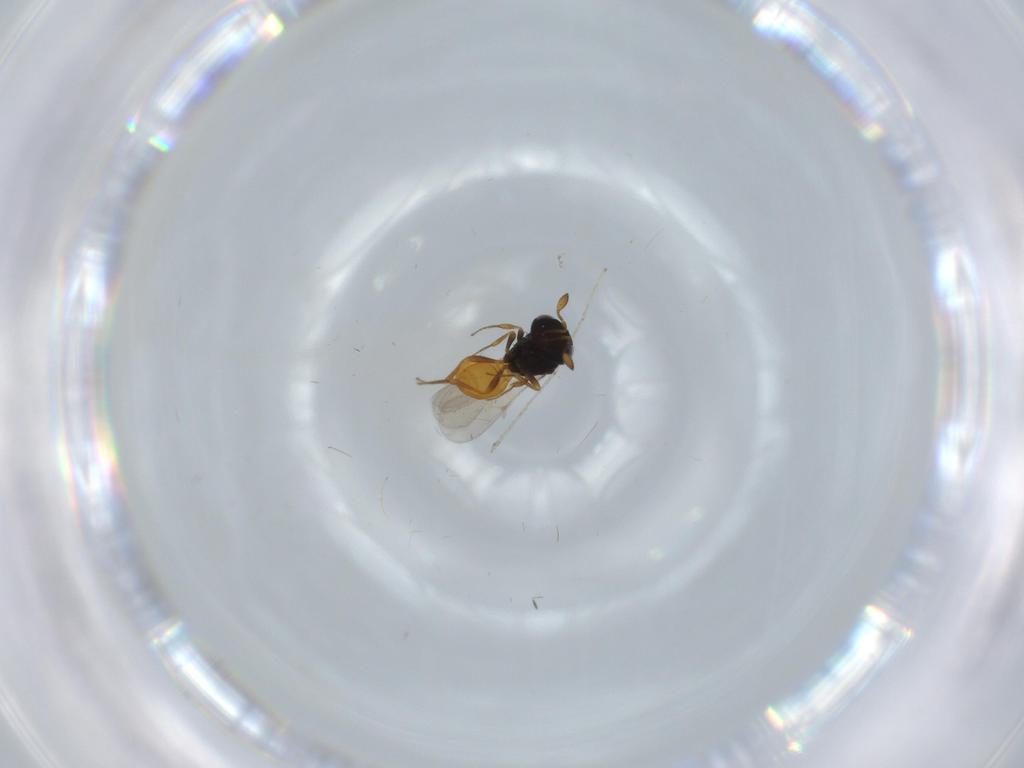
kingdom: Animalia
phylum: Arthropoda
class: Insecta
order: Hymenoptera
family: Scelionidae
